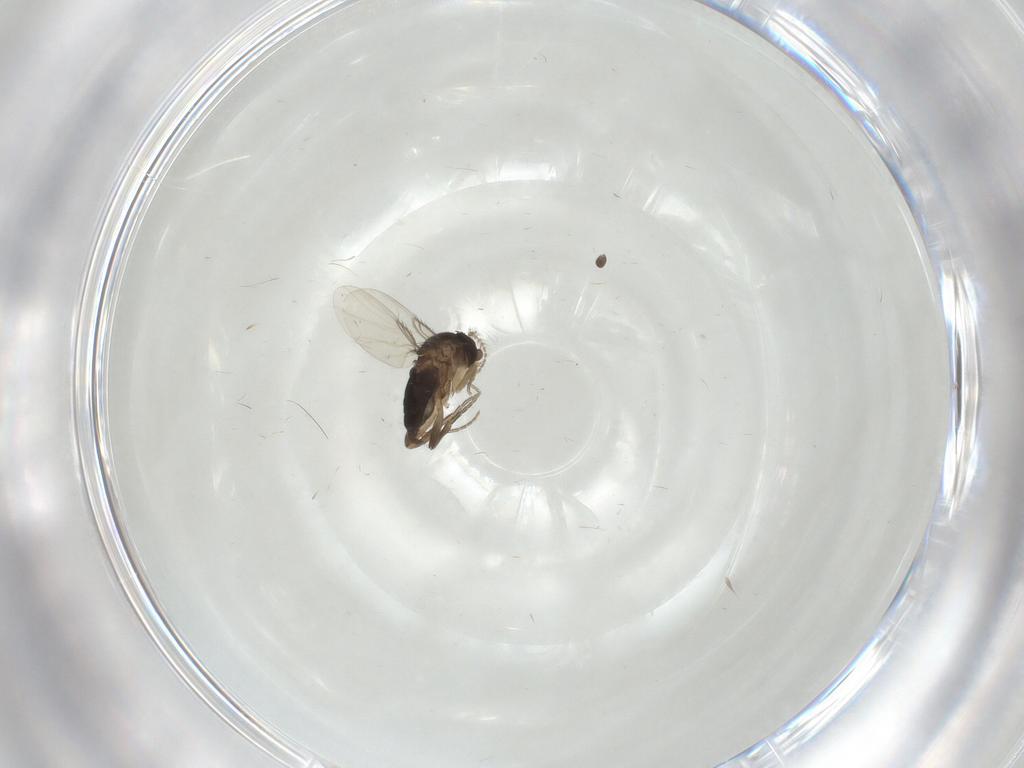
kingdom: Animalia
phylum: Arthropoda
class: Insecta
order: Diptera
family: Phoridae
